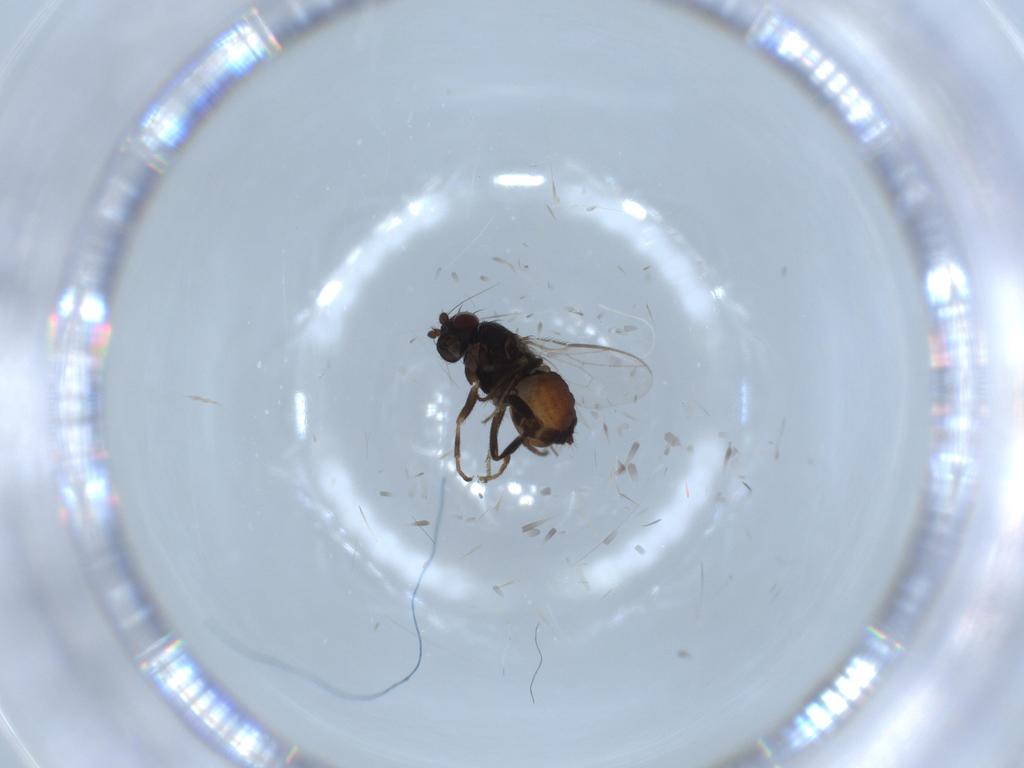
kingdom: Animalia
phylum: Arthropoda
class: Insecta
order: Diptera
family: Sphaeroceridae
